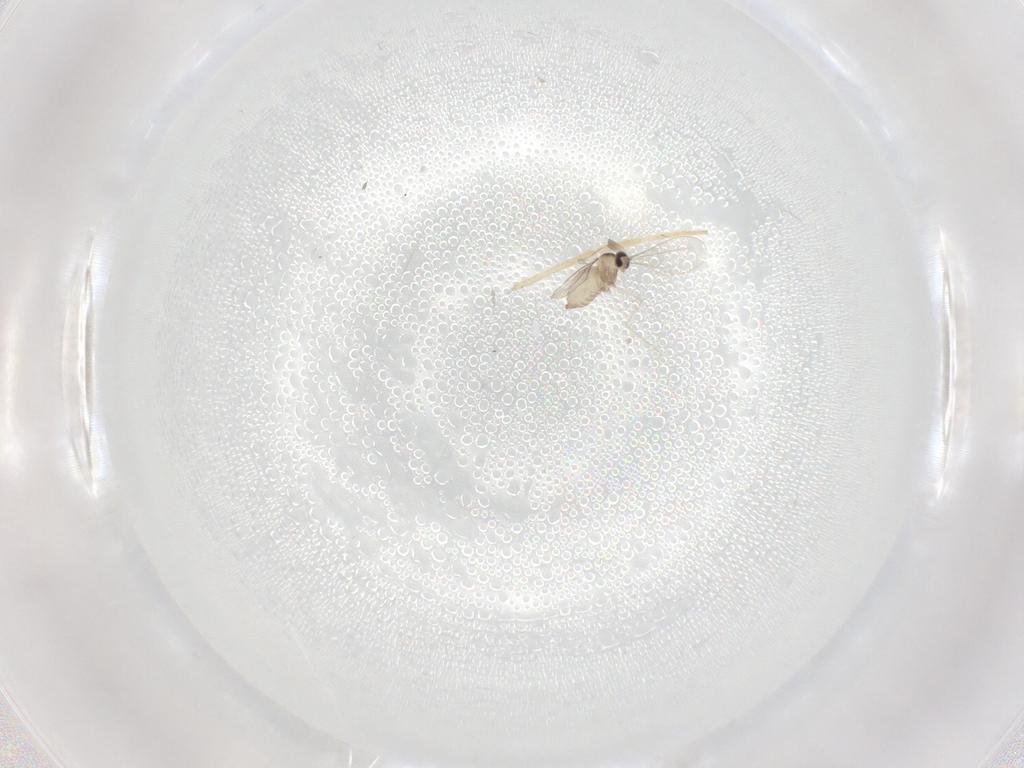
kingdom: Animalia
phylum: Arthropoda
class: Insecta
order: Diptera
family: Cecidomyiidae
